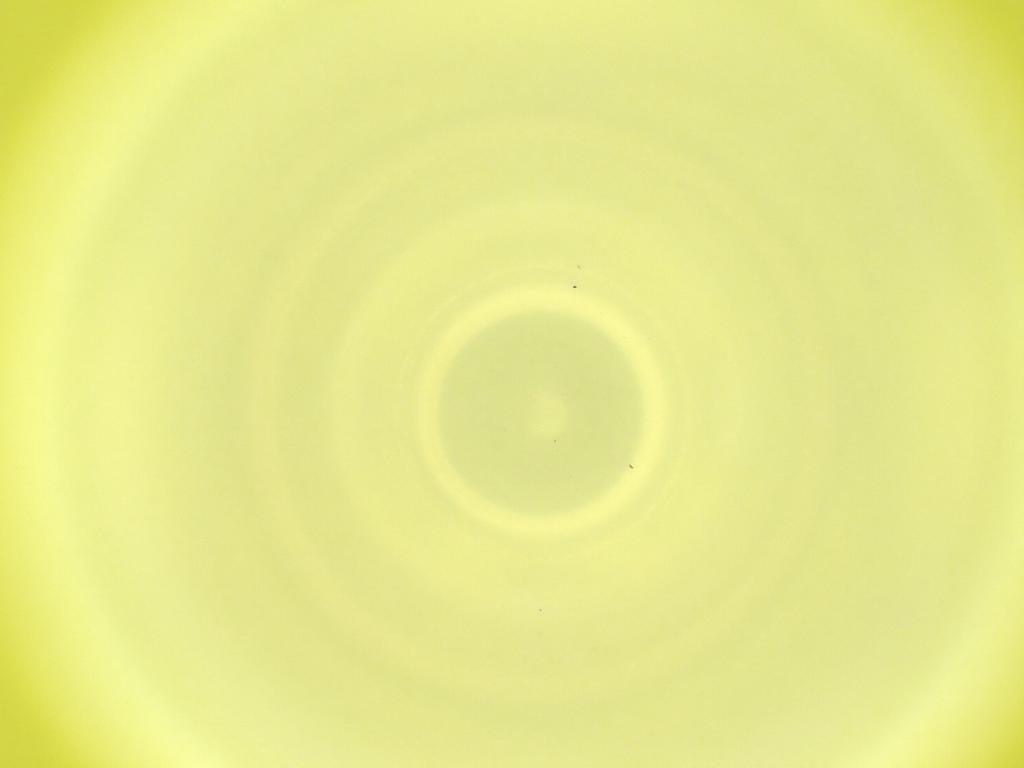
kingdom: Animalia
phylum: Arthropoda
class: Insecta
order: Diptera
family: Cecidomyiidae
